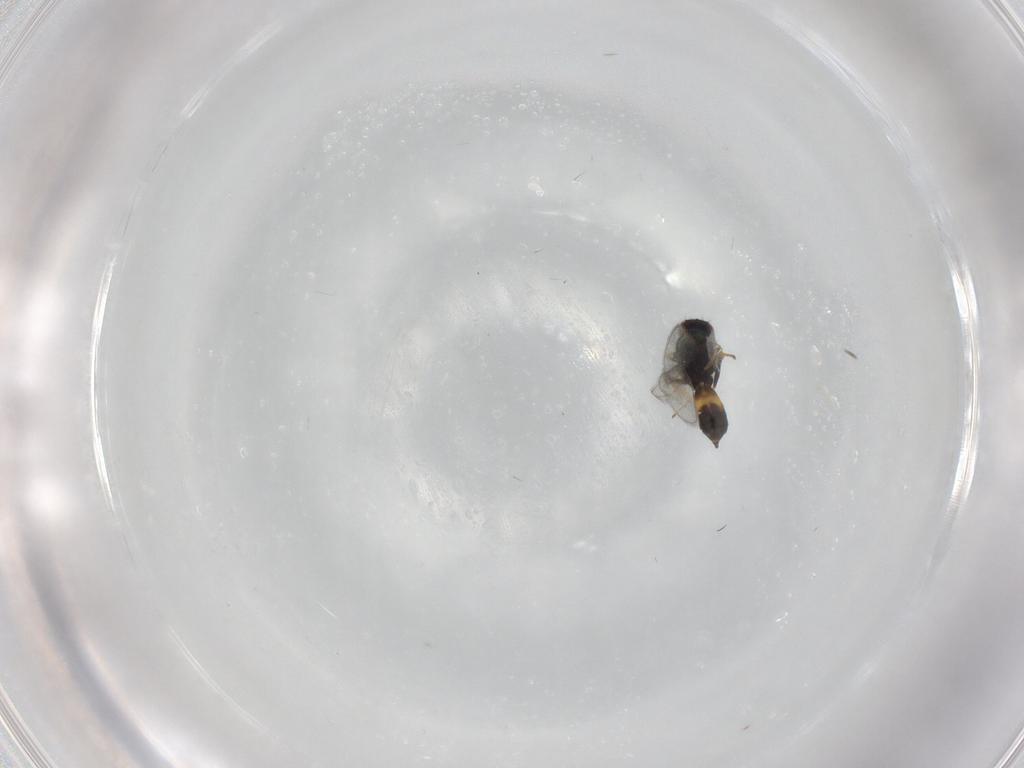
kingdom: Animalia
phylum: Arthropoda
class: Insecta
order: Hymenoptera
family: Eulophidae
